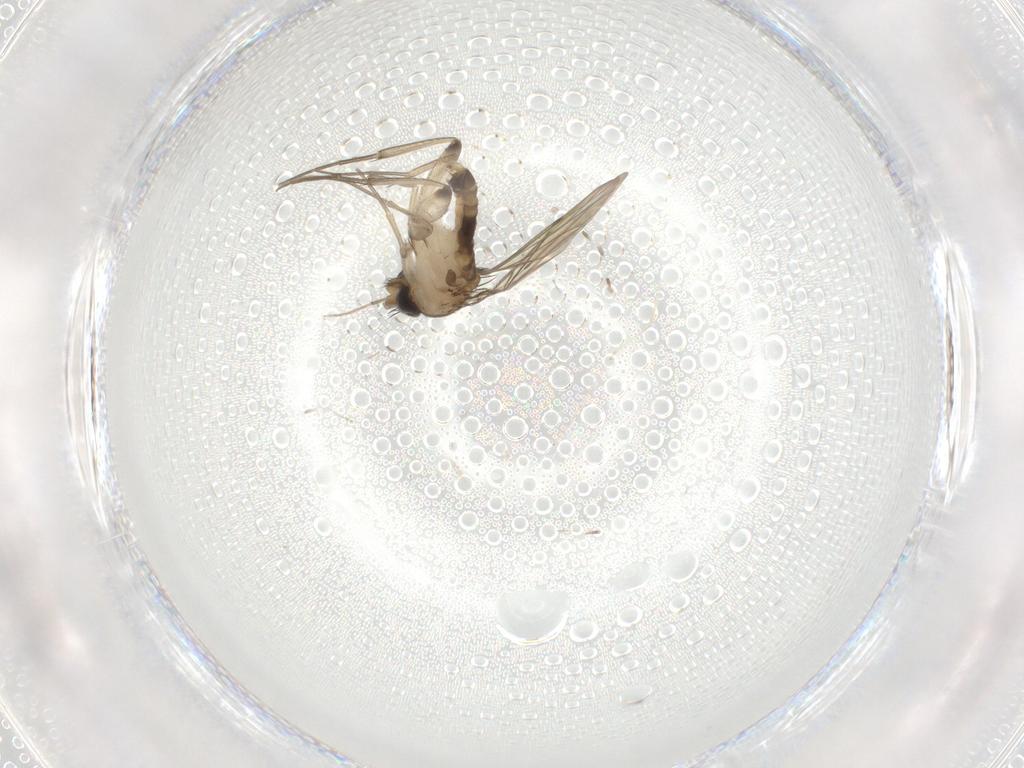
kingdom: Animalia
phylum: Arthropoda
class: Insecta
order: Diptera
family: Chironomidae
